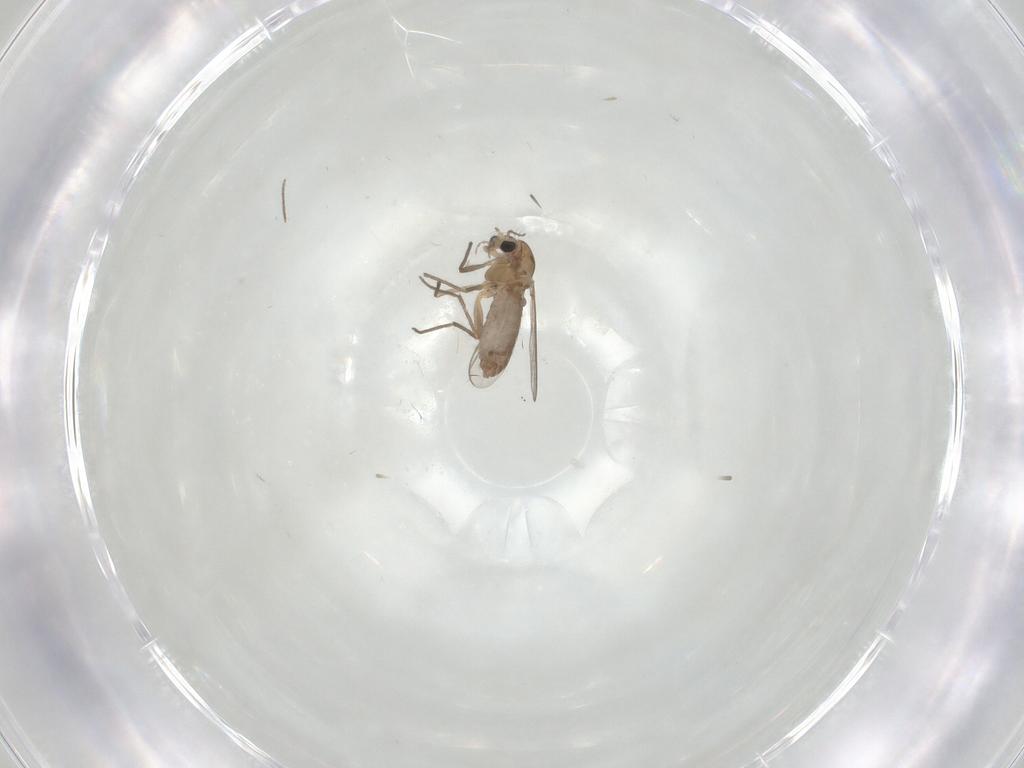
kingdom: Animalia
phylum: Arthropoda
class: Insecta
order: Diptera
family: Chironomidae
